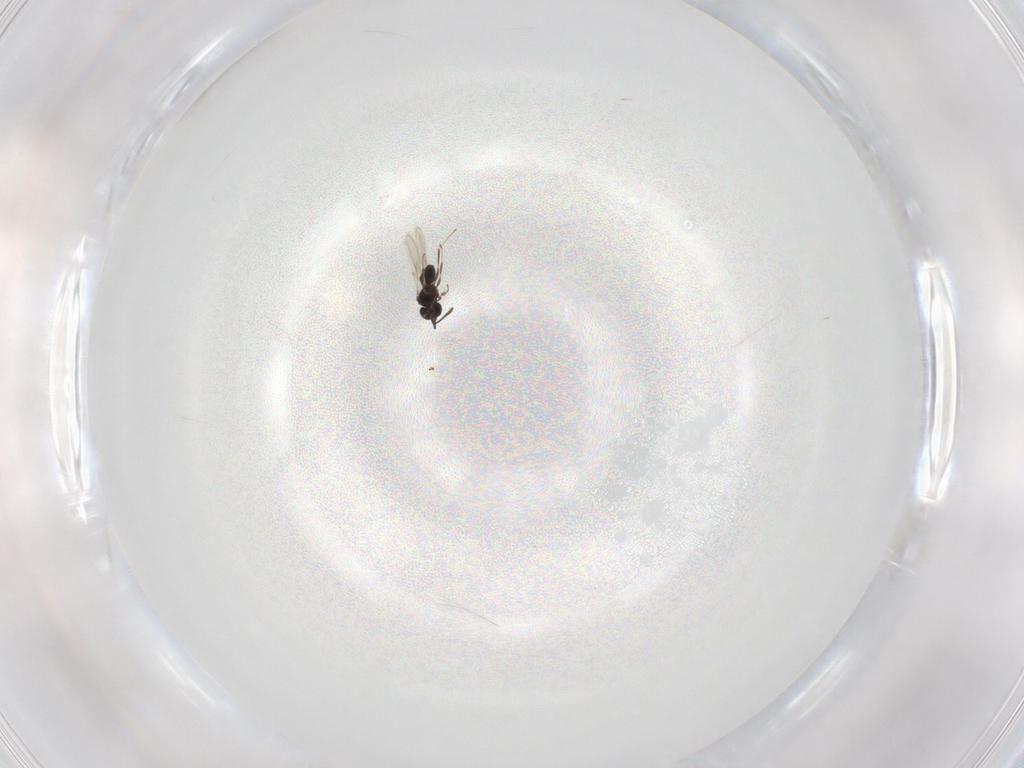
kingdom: Animalia
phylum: Arthropoda
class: Insecta
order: Hymenoptera
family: Scelionidae
